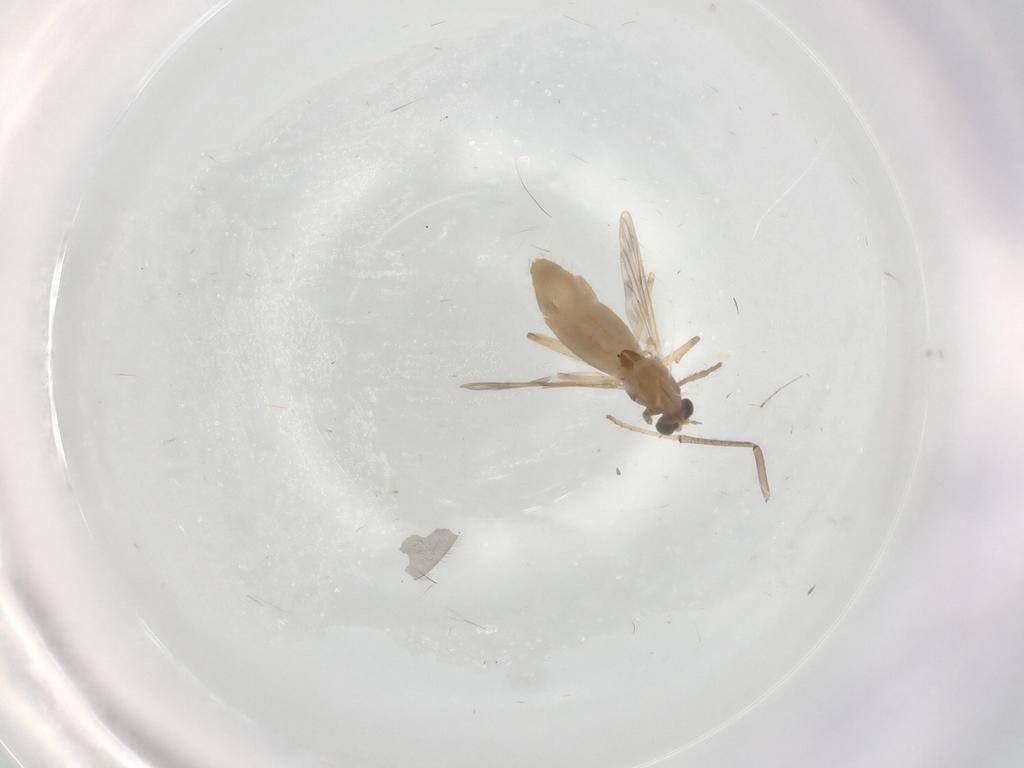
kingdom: Animalia
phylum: Arthropoda
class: Insecta
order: Diptera
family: Chironomidae
